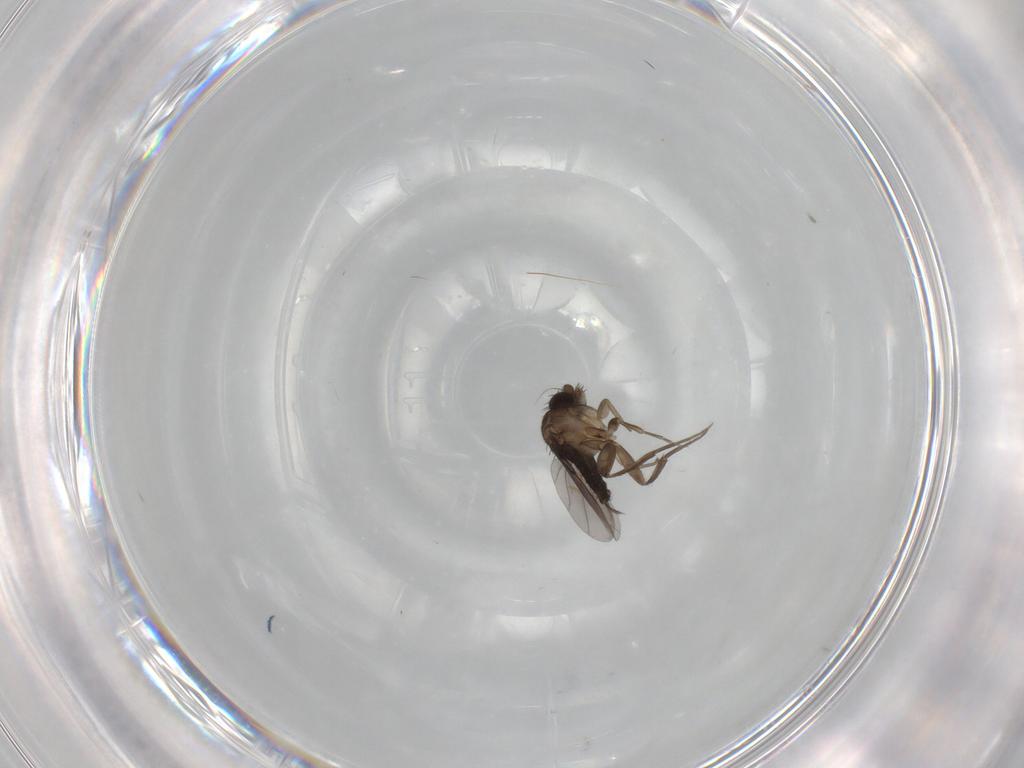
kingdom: Animalia
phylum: Arthropoda
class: Insecta
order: Diptera
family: Phoridae
